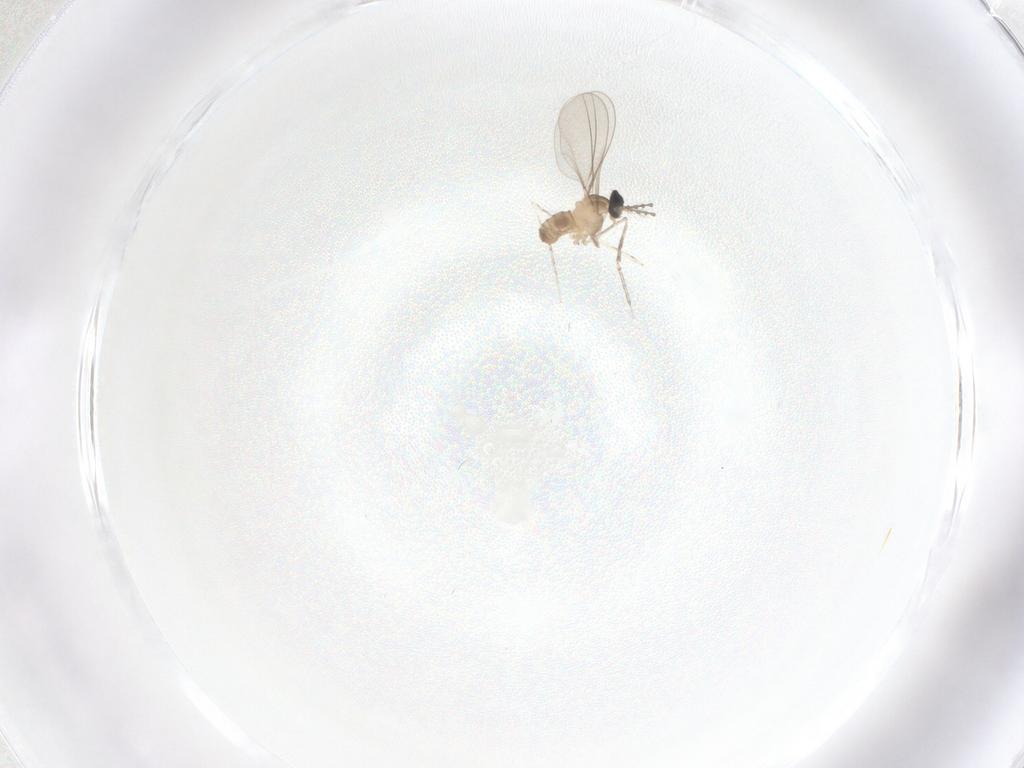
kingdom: Animalia
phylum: Arthropoda
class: Insecta
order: Diptera
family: Cecidomyiidae
